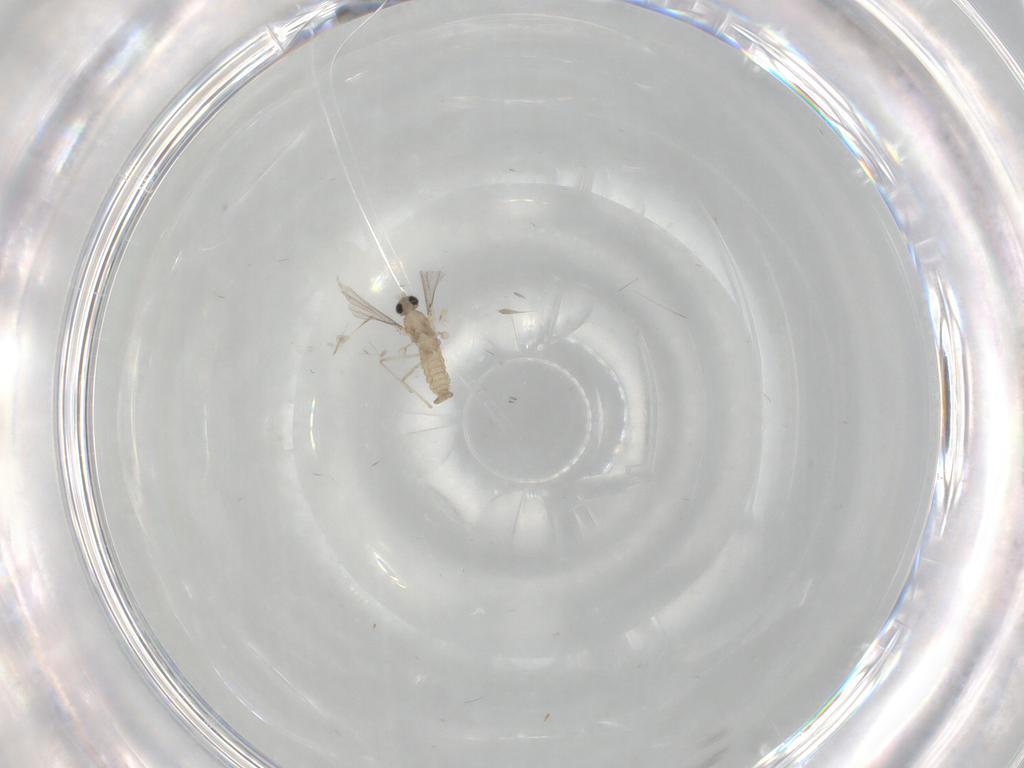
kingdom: Animalia
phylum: Arthropoda
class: Insecta
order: Diptera
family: Cecidomyiidae
